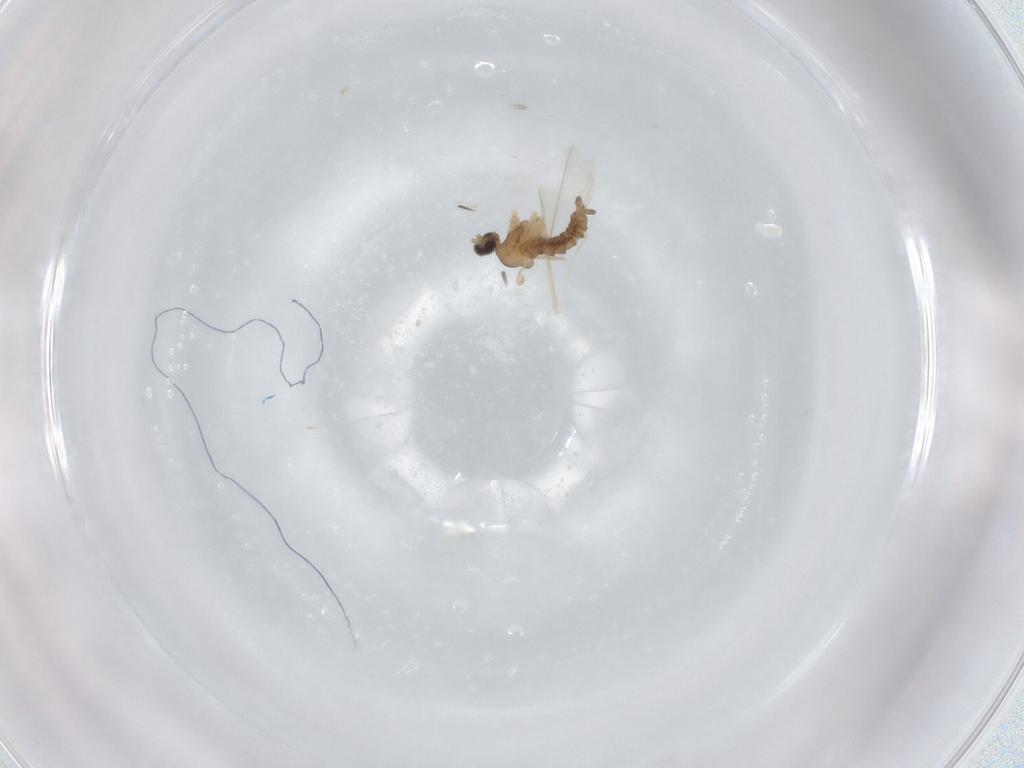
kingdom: Animalia
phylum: Arthropoda
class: Insecta
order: Diptera
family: Cecidomyiidae
